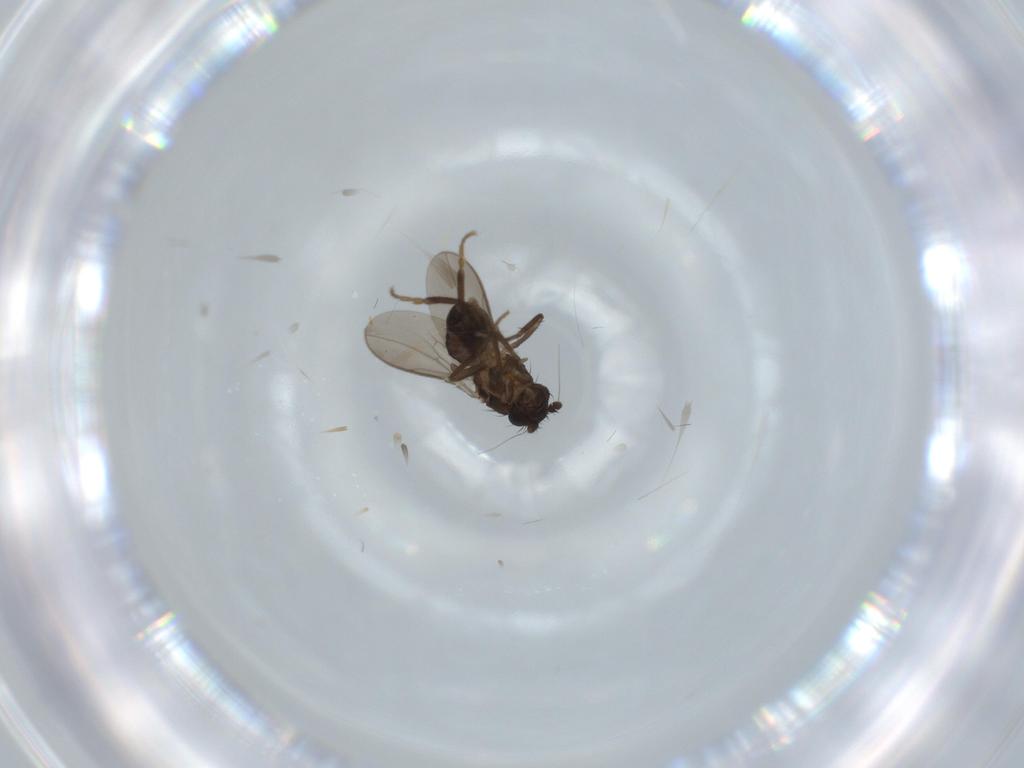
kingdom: Animalia
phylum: Arthropoda
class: Insecta
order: Diptera
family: Sphaeroceridae
